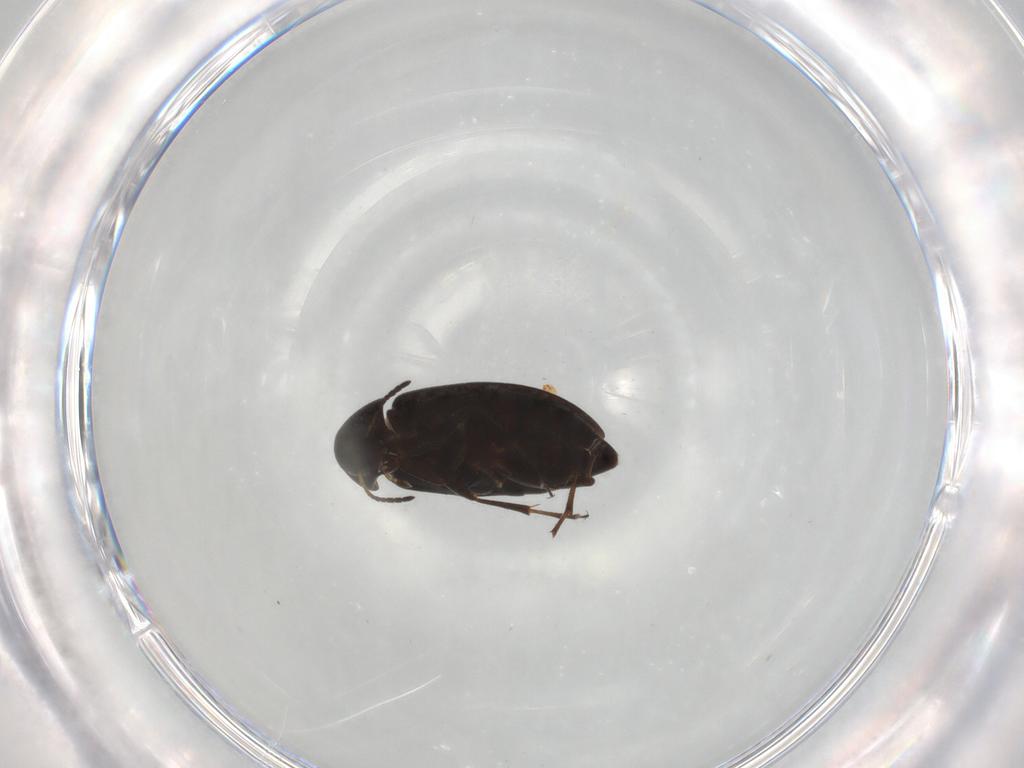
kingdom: Animalia
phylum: Arthropoda
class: Insecta
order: Coleoptera
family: Scraptiidae
